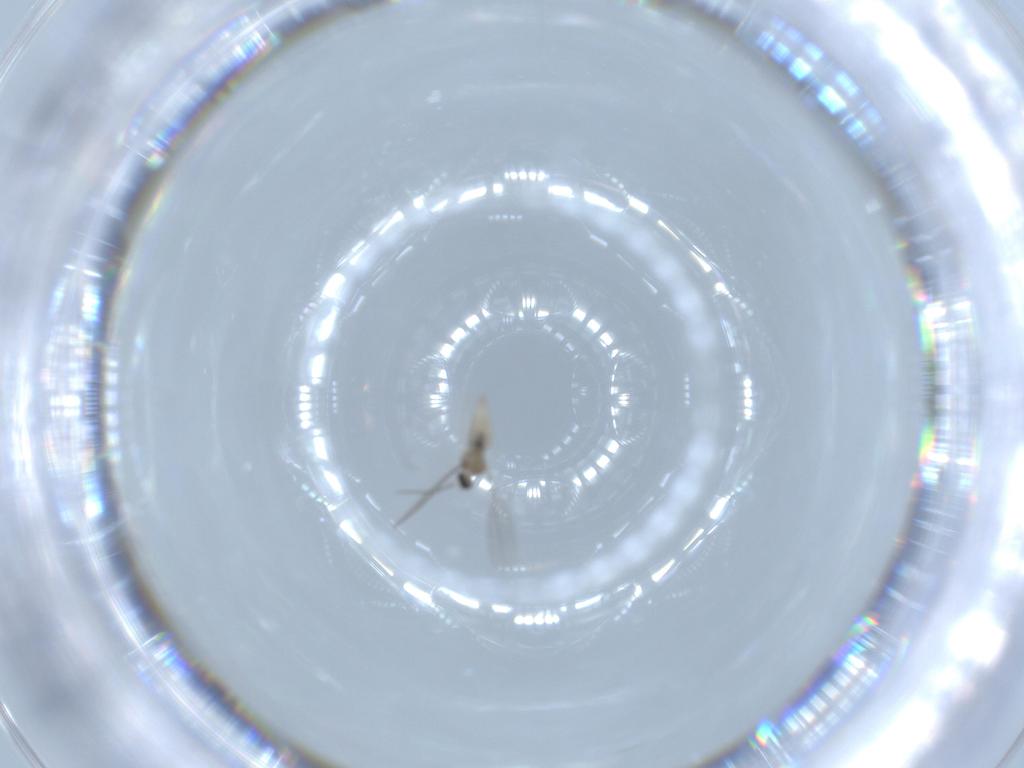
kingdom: Animalia
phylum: Arthropoda
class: Insecta
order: Diptera
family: Cecidomyiidae
